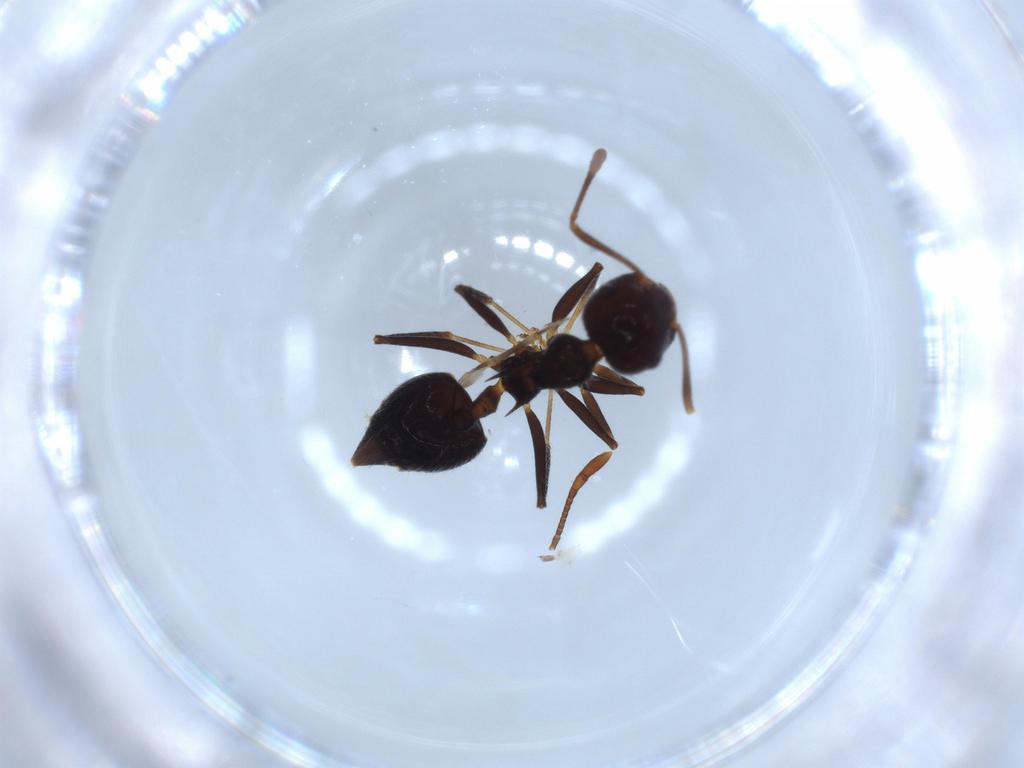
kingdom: Animalia
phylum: Arthropoda
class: Insecta
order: Hymenoptera
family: Formicidae
